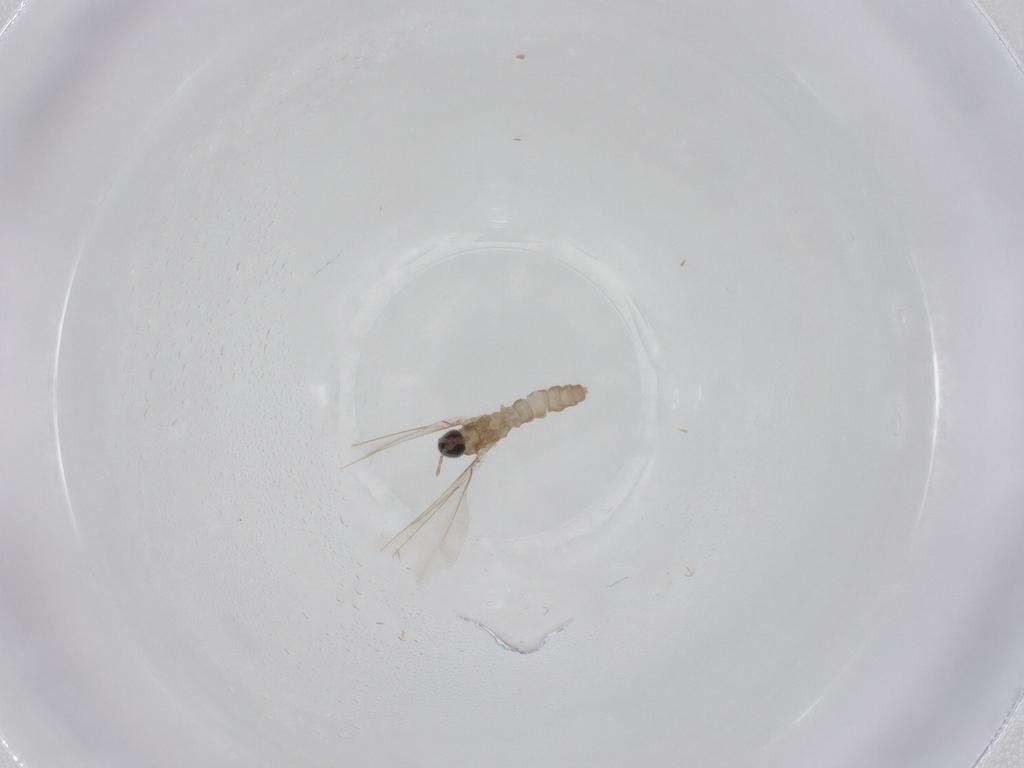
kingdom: Animalia
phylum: Arthropoda
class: Insecta
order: Diptera
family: Cecidomyiidae
